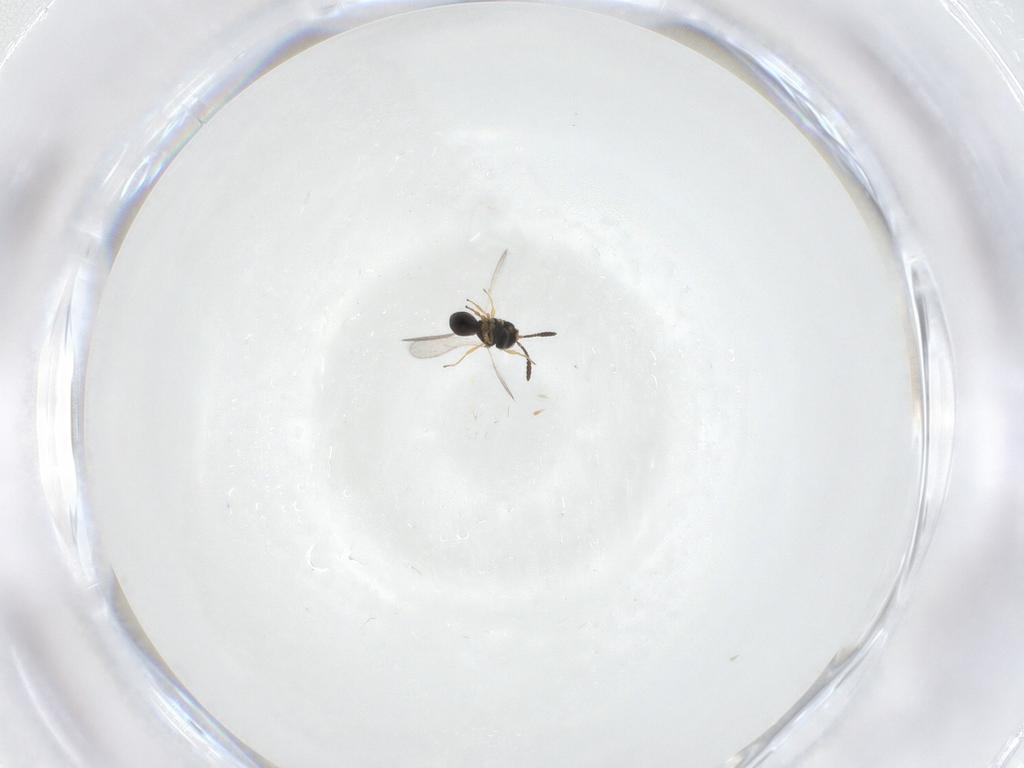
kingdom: Animalia
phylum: Arthropoda
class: Insecta
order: Hymenoptera
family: Scelionidae
